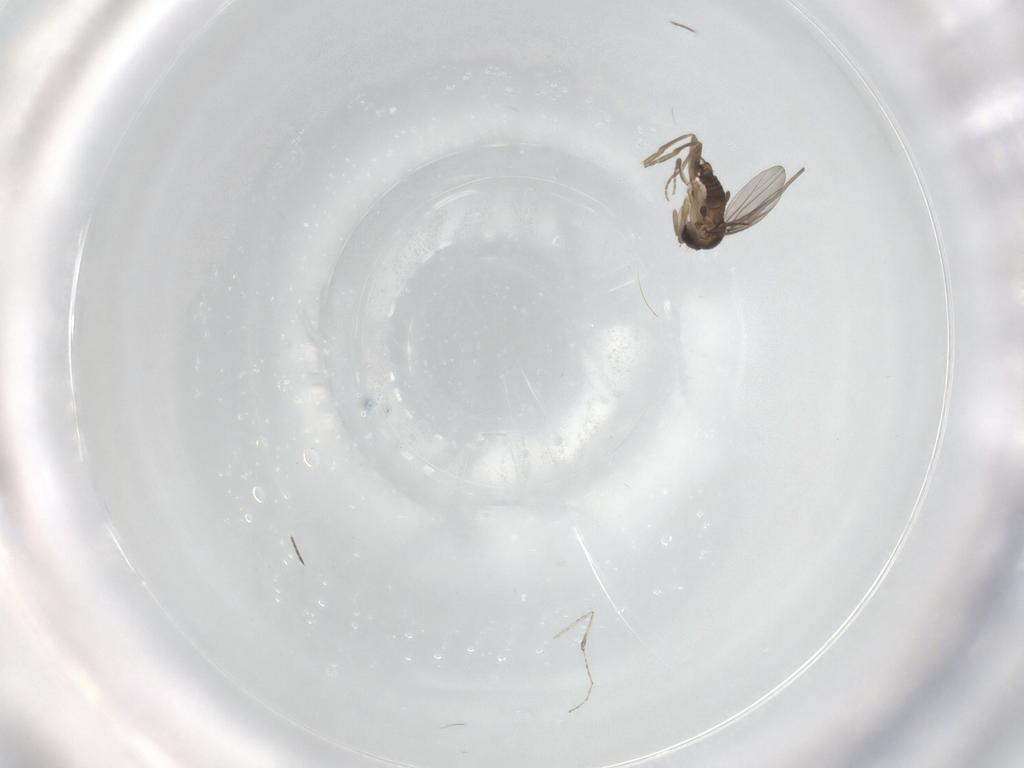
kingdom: Animalia
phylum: Arthropoda
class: Insecta
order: Diptera
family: Cecidomyiidae
